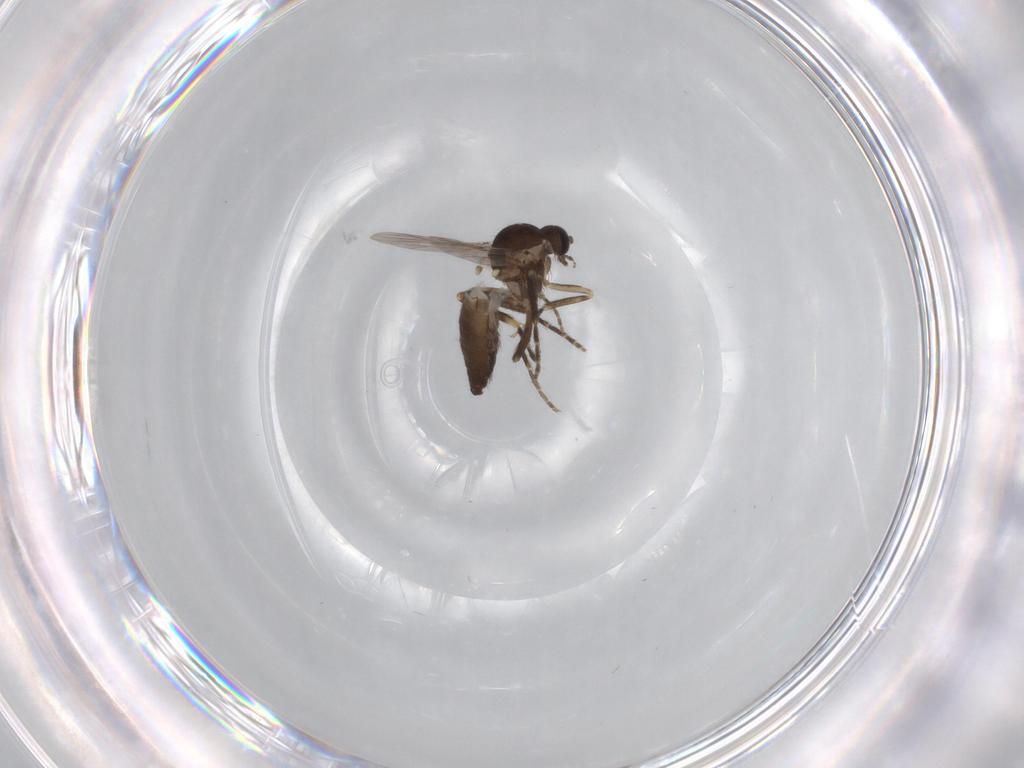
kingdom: Animalia
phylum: Arthropoda
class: Insecta
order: Diptera
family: Ceratopogonidae
